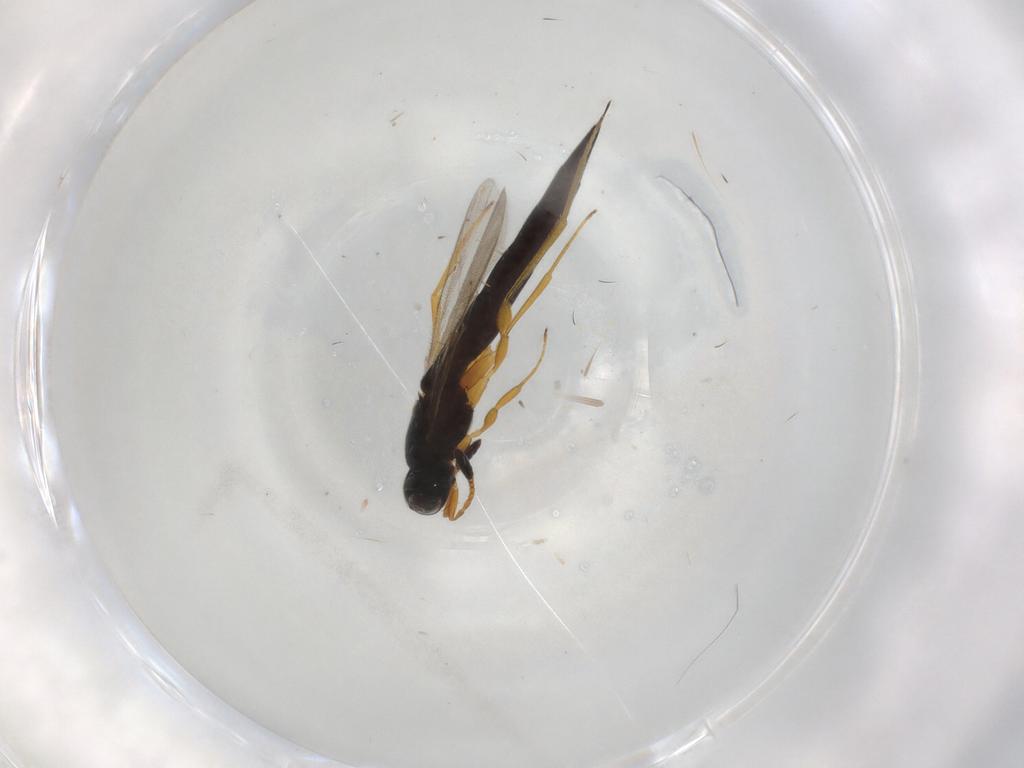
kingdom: Animalia
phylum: Arthropoda
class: Insecta
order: Hymenoptera
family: Scelionidae
